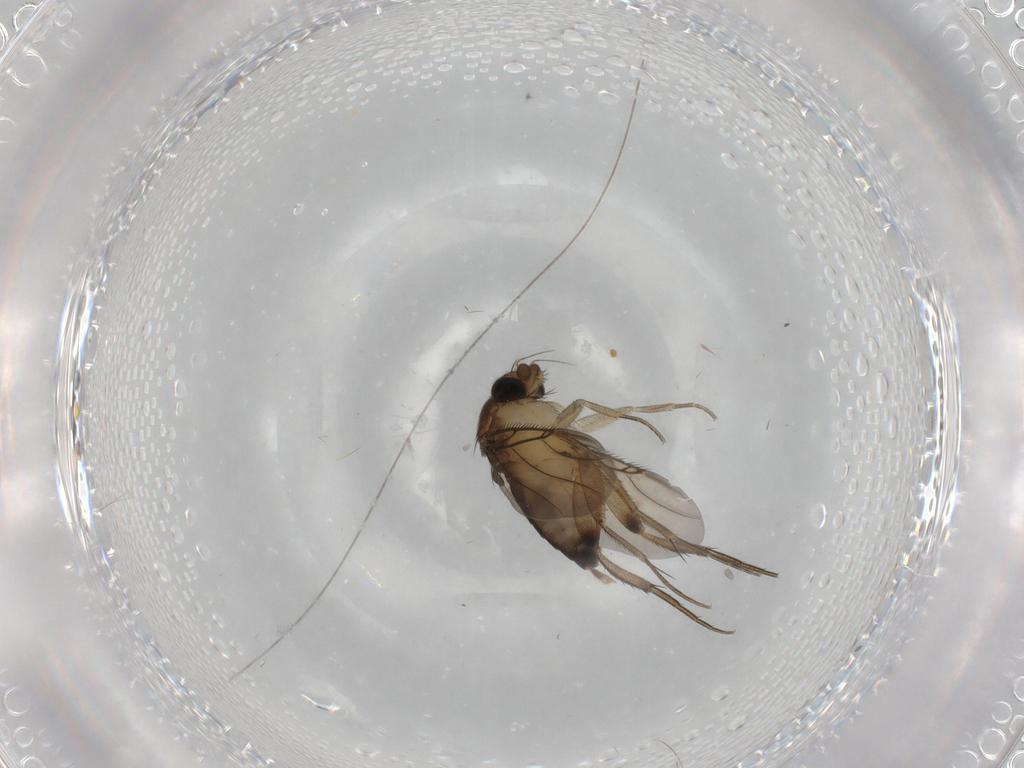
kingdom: Animalia
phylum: Arthropoda
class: Insecta
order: Diptera
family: Phoridae
